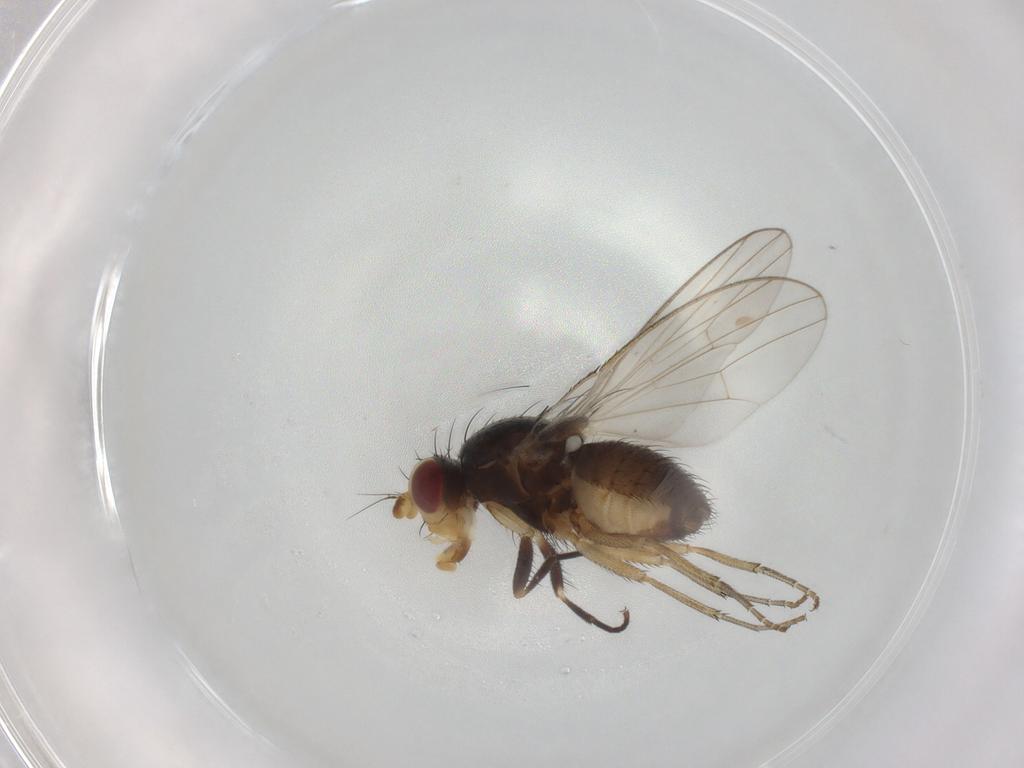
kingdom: Animalia
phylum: Arthropoda
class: Insecta
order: Diptera
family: Sciaridae
